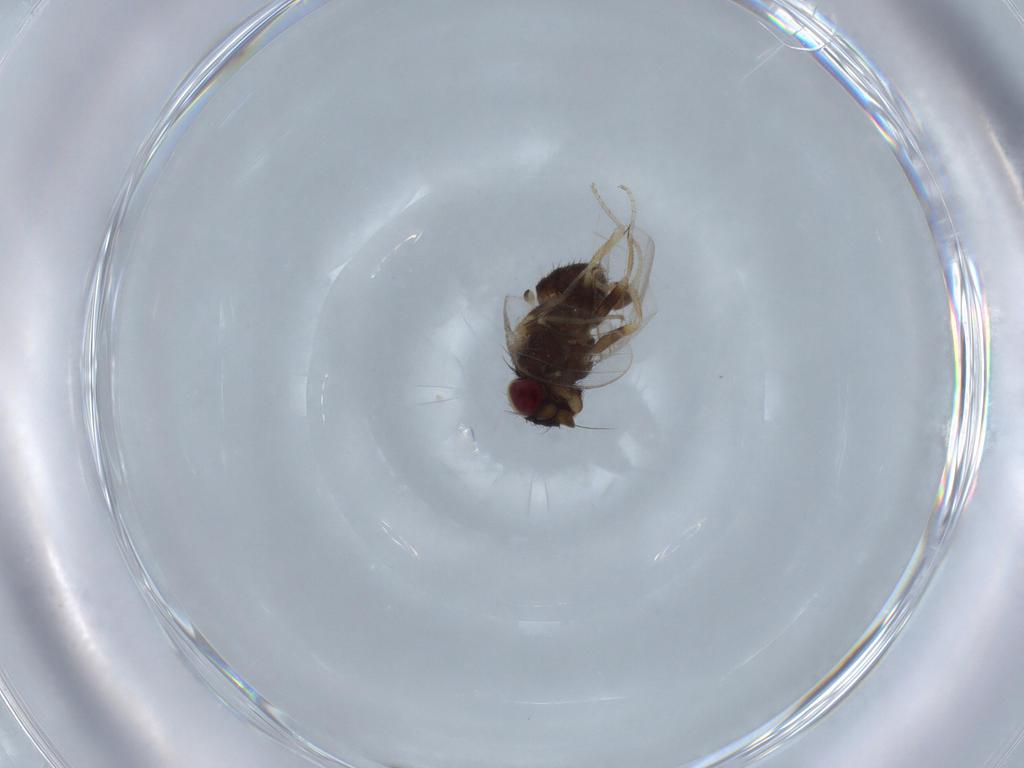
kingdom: Animalia
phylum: Arthropoda
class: Insecta
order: Diptera
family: Milichiidae
